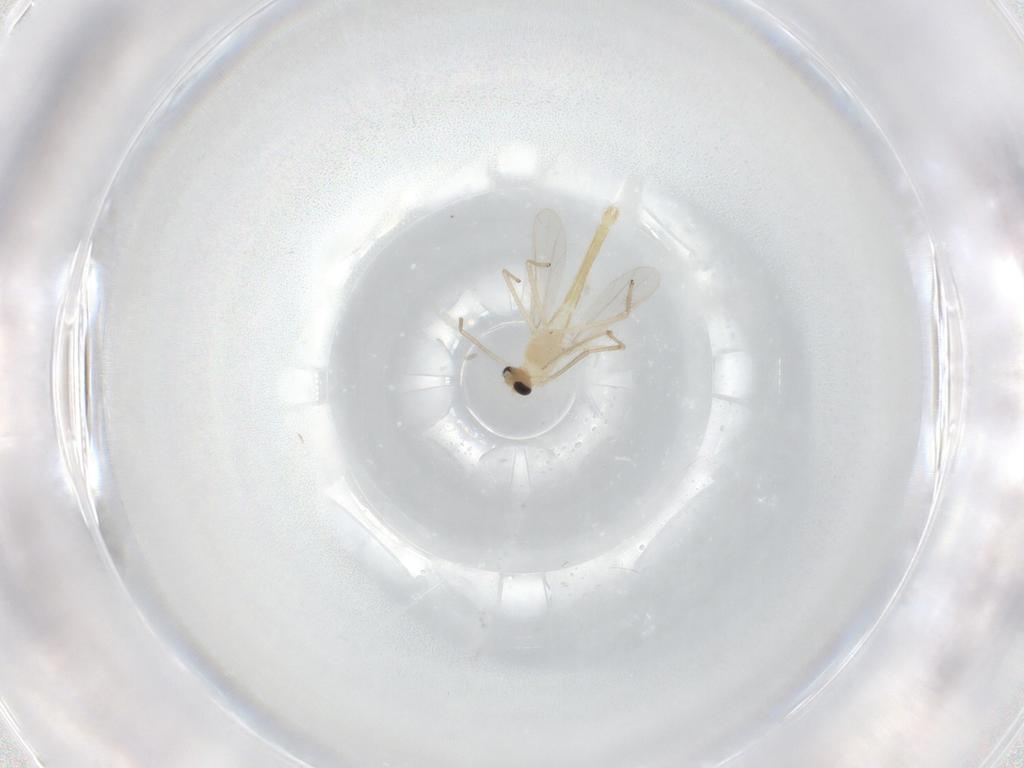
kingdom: Animalia
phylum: Arthropoda
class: Insecta
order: Diptera
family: Chironomidae
